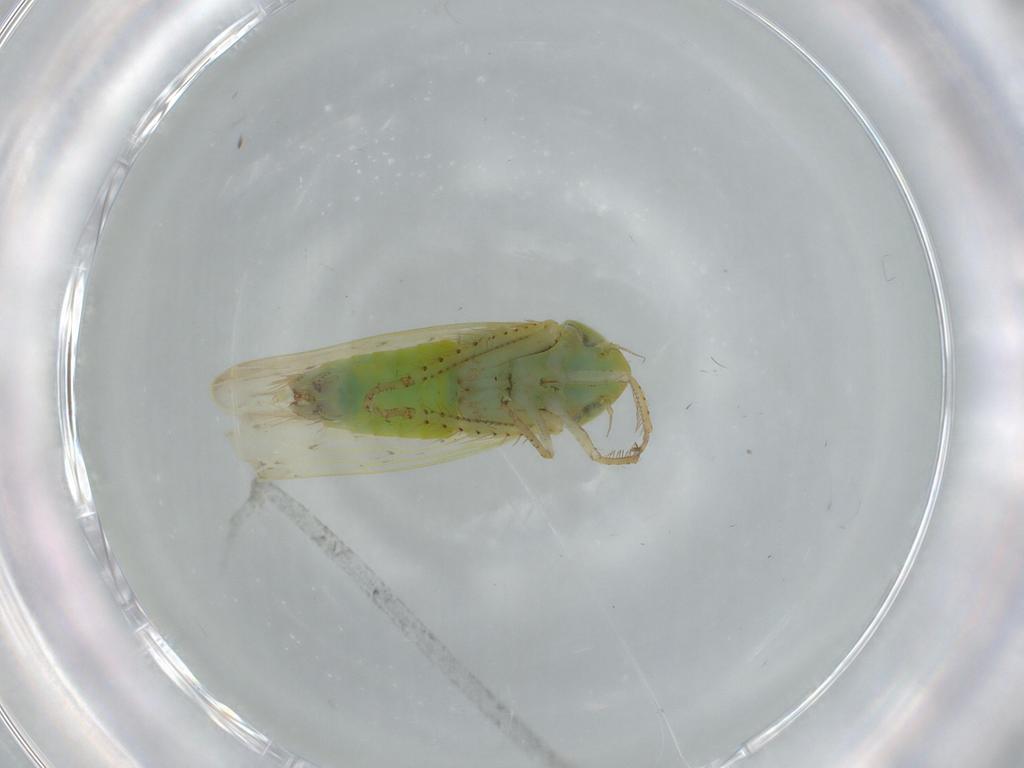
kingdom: Animalia
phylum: Arthropoda
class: Insecta
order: Hemiptera
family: Cicadellidae
